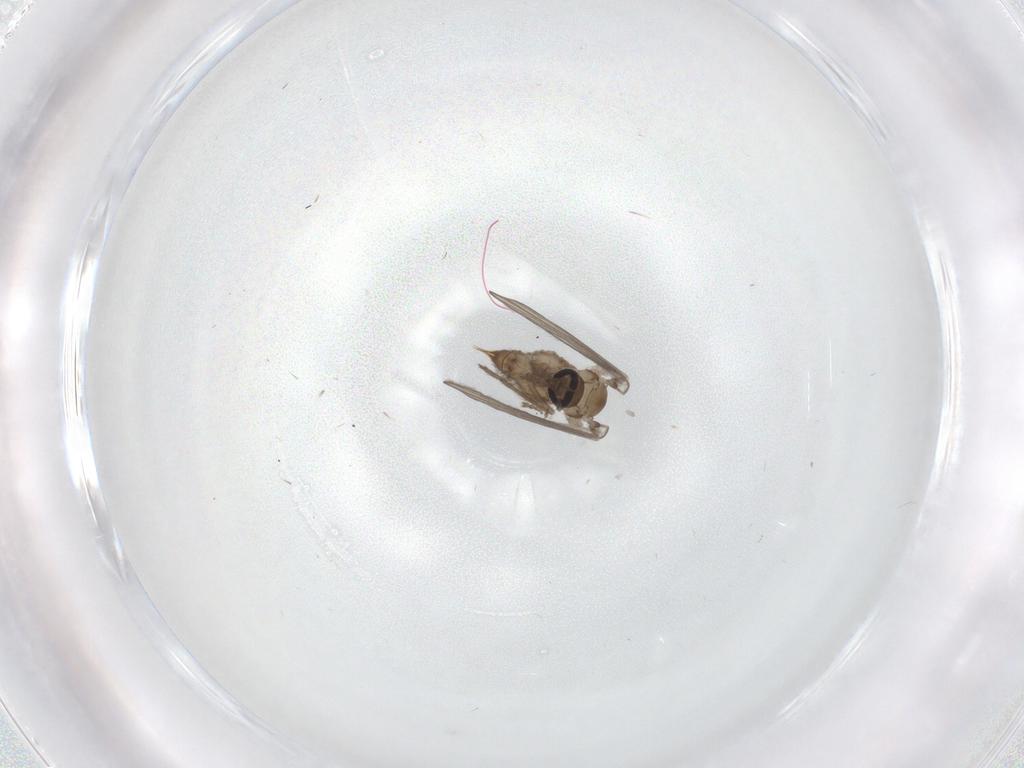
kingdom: Animalia
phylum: Arthropoda
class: Insecta
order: Diptera
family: Psychodidae
